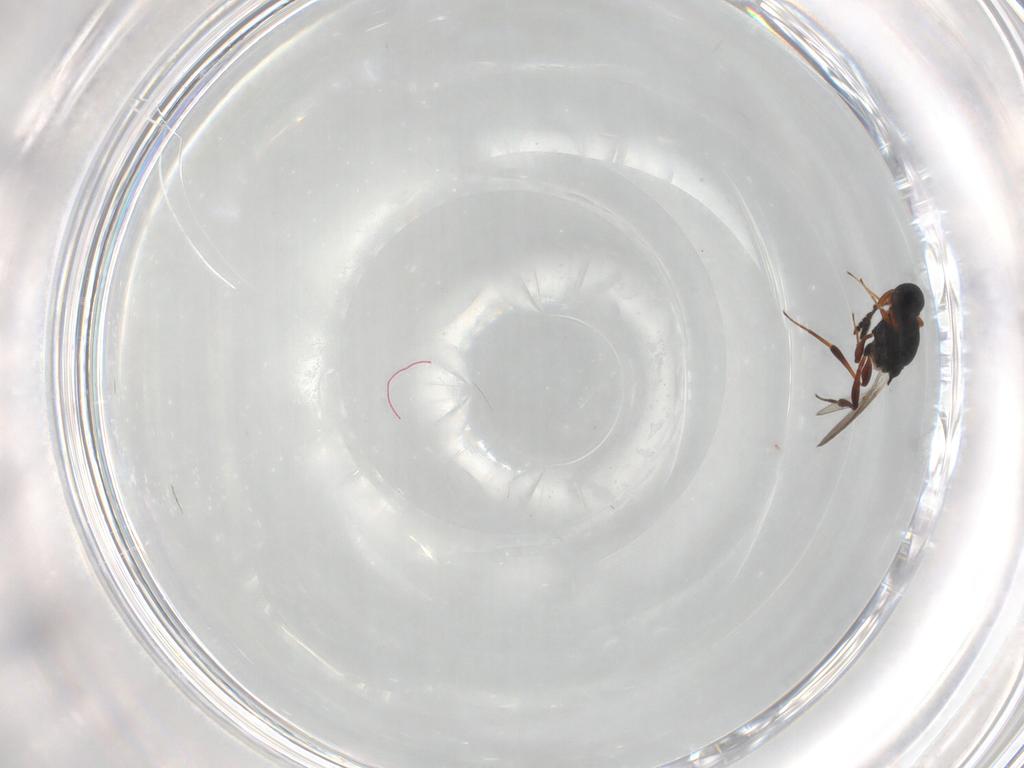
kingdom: Animalia
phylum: Arthropoda
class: Insecta
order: Hymenoptera
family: Platygastridae
